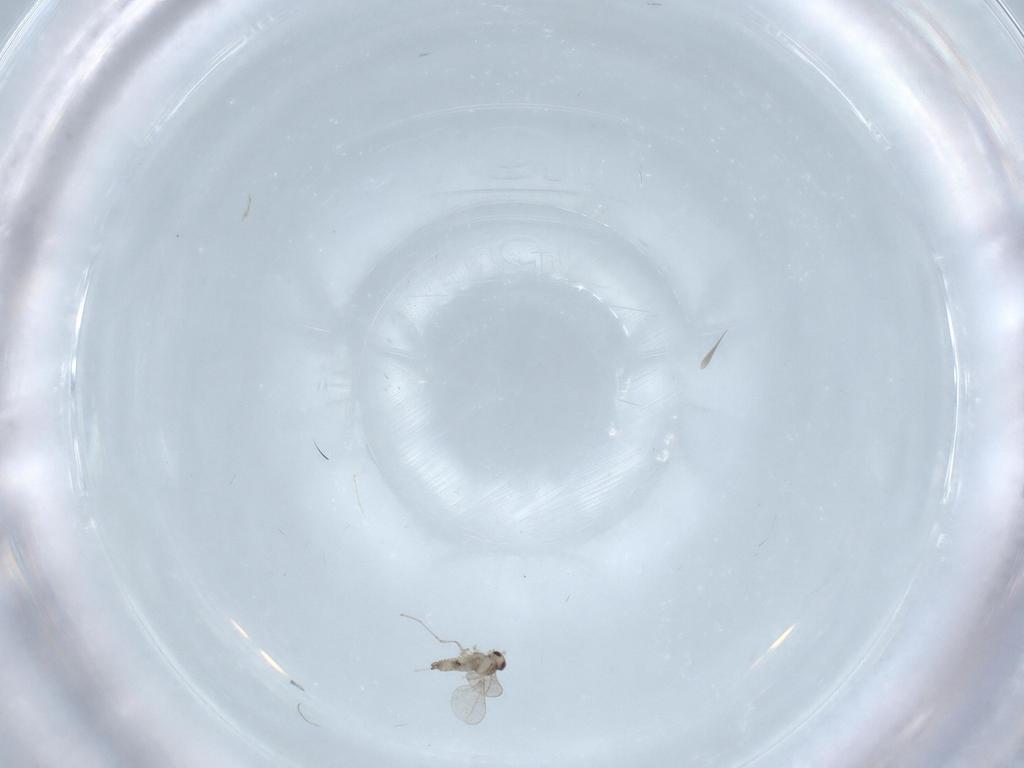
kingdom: Animalia
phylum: Arthropoda
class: Insecta
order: Diptera
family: Cecidomyiidae
